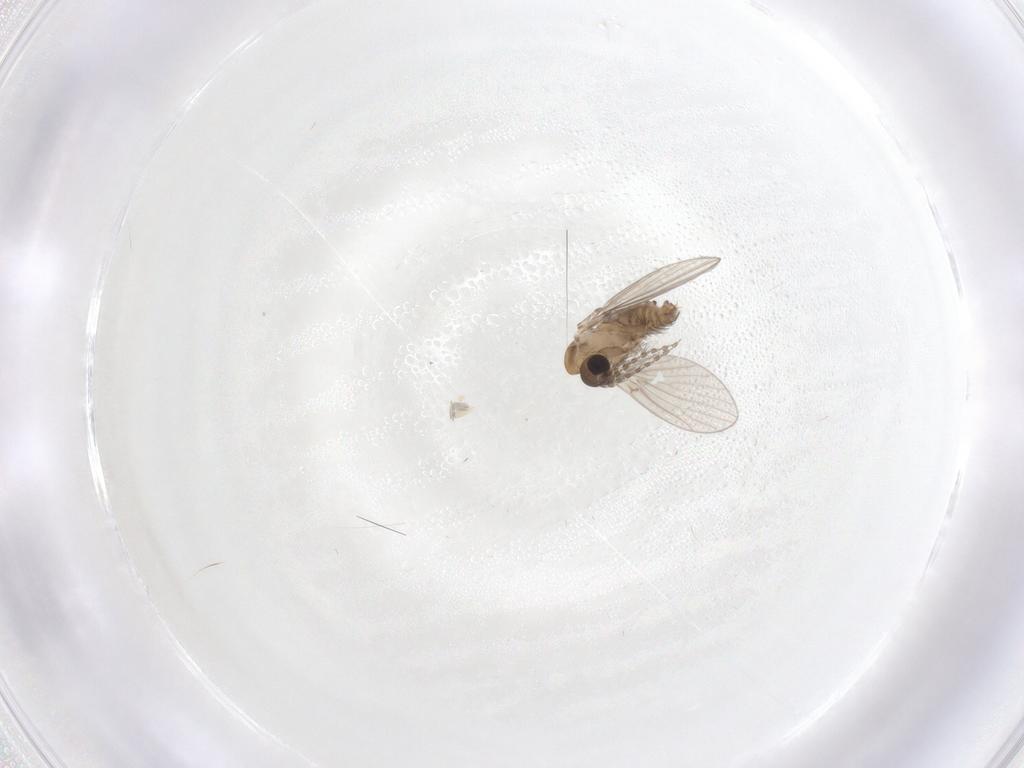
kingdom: Animalia
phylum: Arthropoda
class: Insecta
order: Diptera
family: Psychodidae
